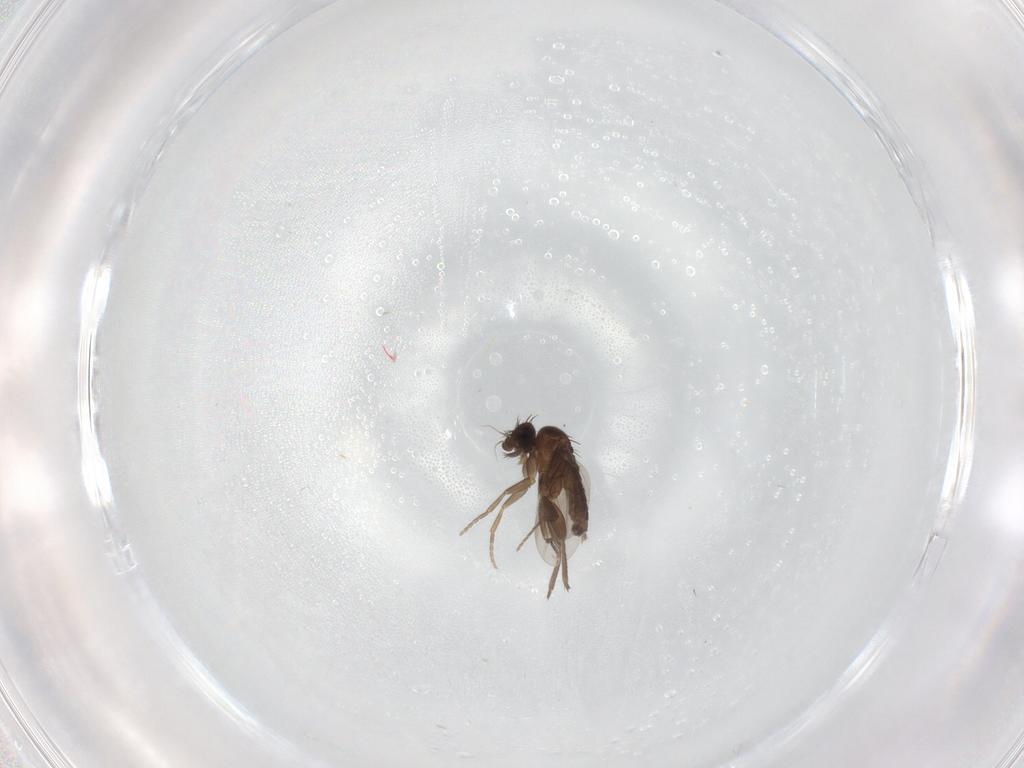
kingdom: Animalia
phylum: Arthropoda
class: Insecta
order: Diptera
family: Phoridae
